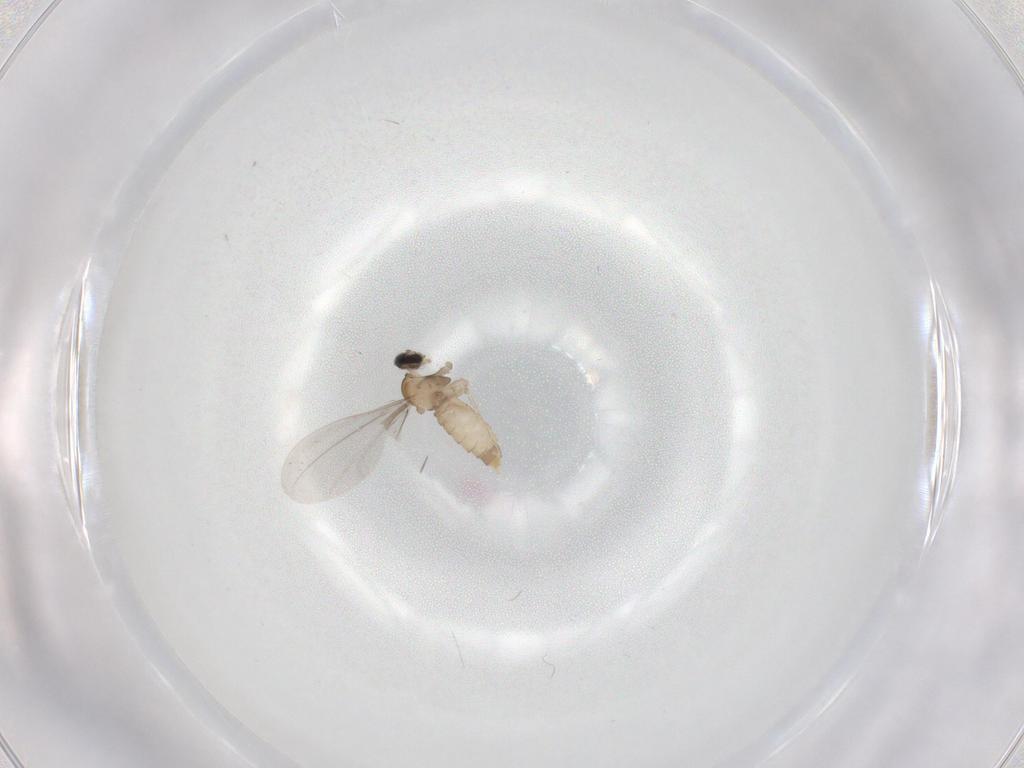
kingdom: Animalia
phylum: Arthropoda
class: Insecta
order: Diptera
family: Cecidomyiidae
